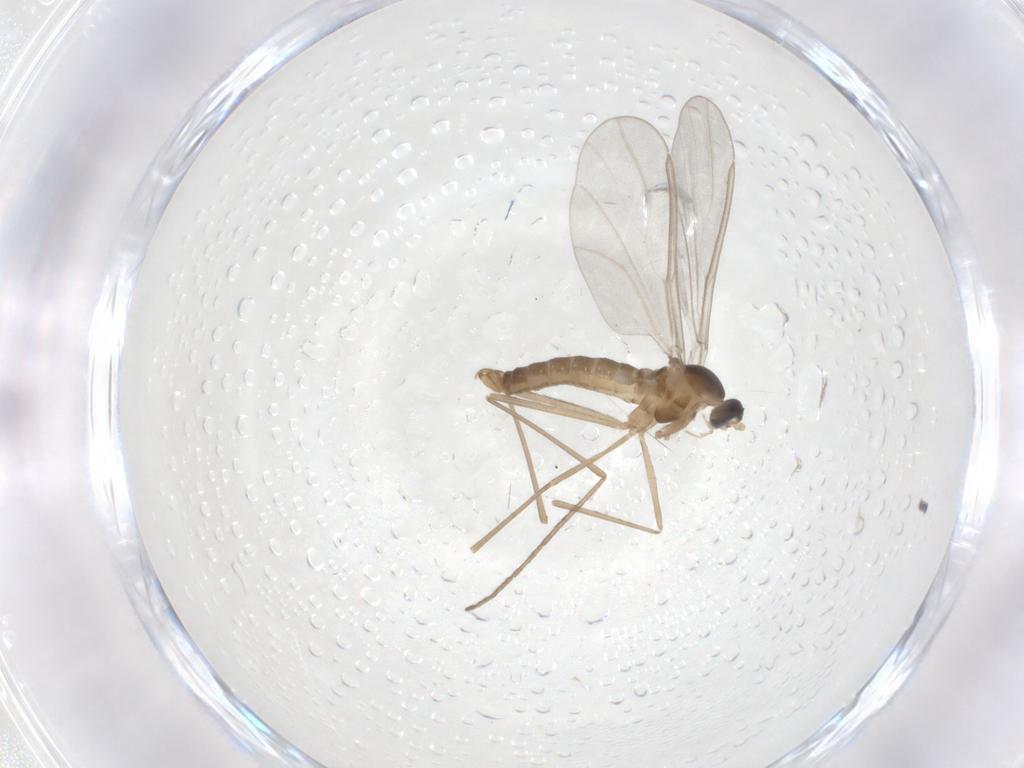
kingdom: Animalia
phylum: Arthropoda
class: Insecta
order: Diptera
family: Cecidomyiidae
